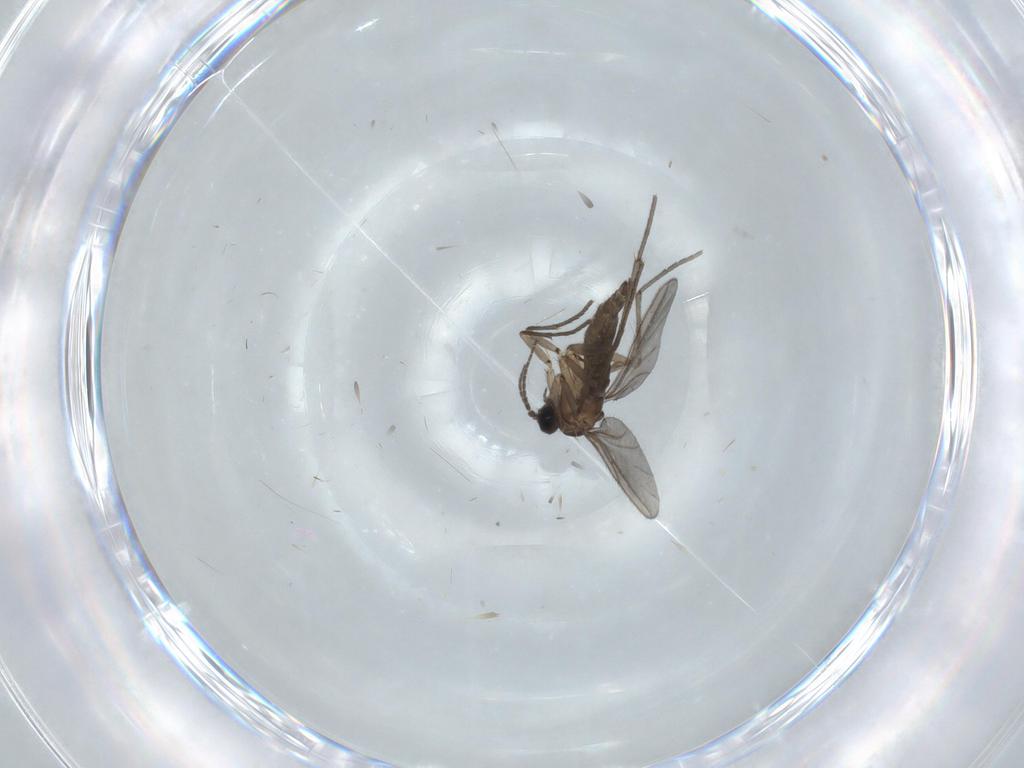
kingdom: Animalia
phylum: Arthropoda
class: Insecta
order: Diptera
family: Sciaridae
